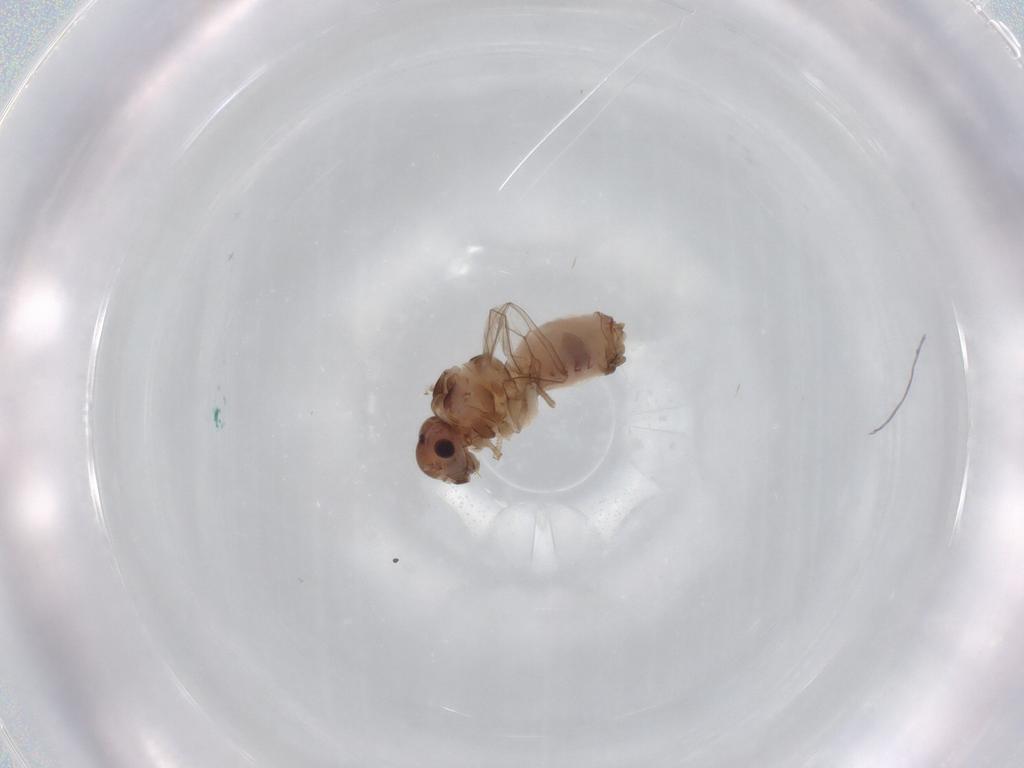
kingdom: Animalia
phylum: Arthropoda
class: Insecta
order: Psocodea
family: Peripsocidae
